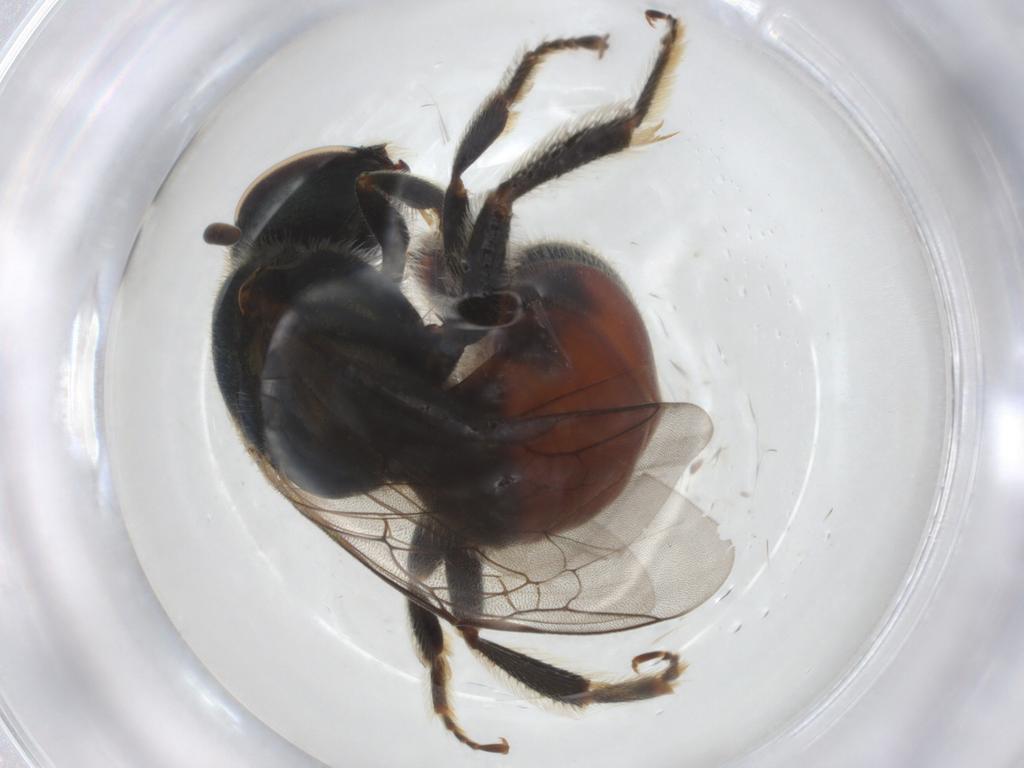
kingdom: Animalia
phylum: Arthropoda
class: Insecta
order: Hymenoptera
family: Halictidae
